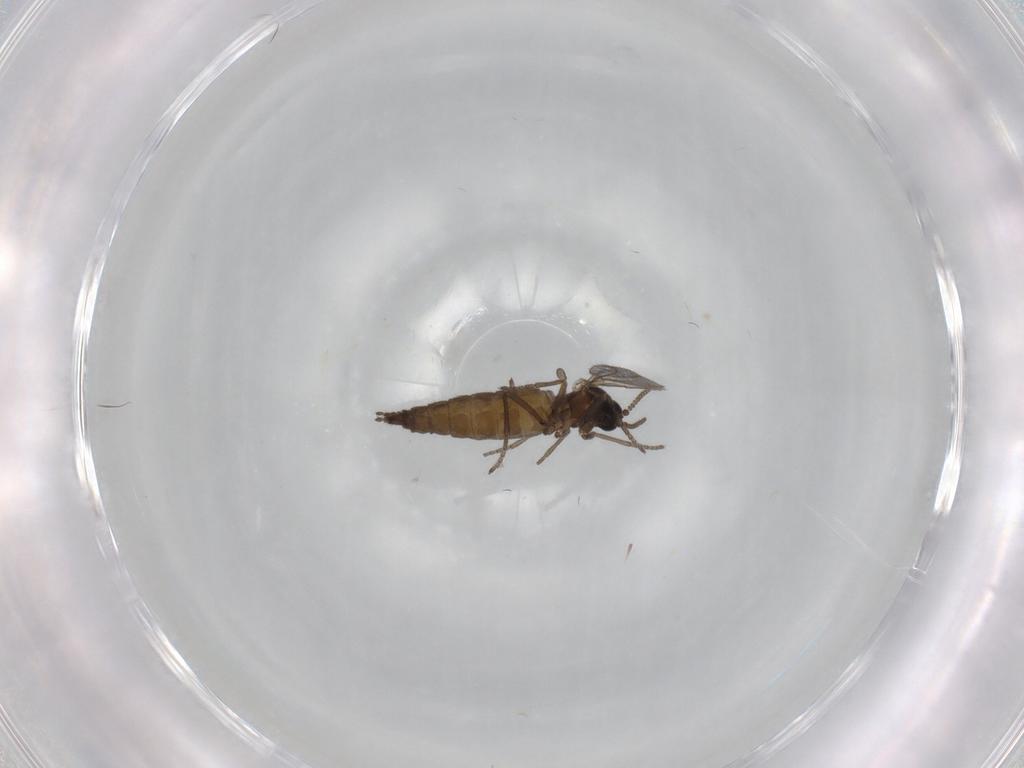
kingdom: Animalia
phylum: Arthropoda
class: Insecta
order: Diptera
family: Sciaridae
